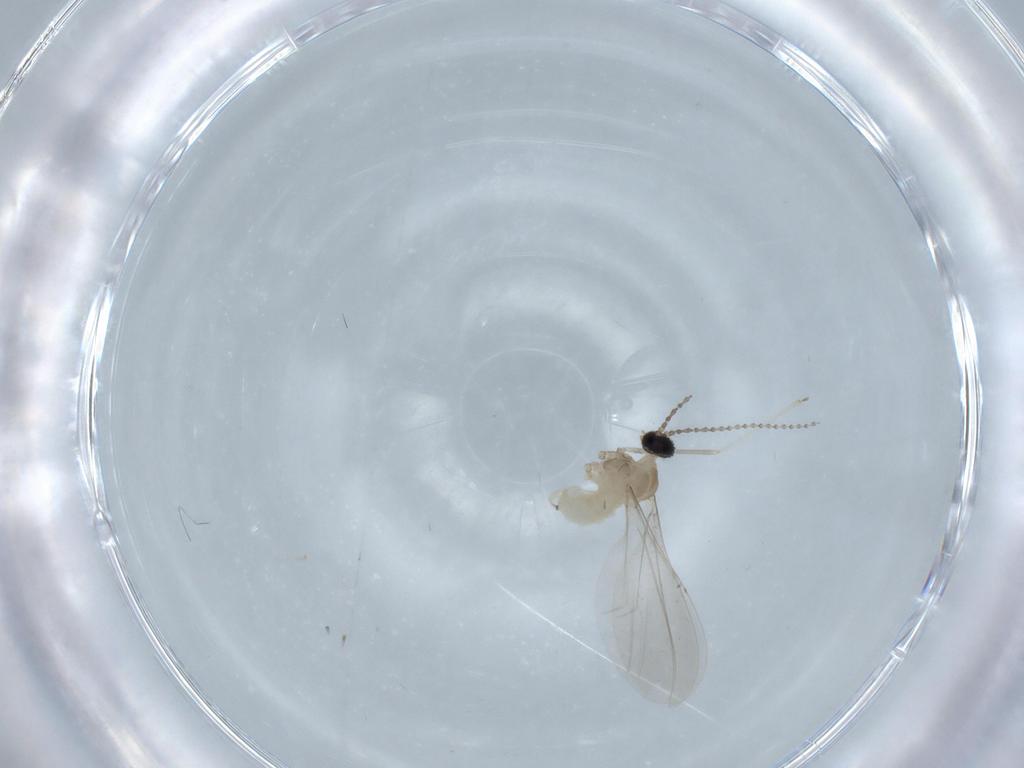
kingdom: Animalia
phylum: Arthropoda
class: Insecta
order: Diptera
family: Cecidomyiidae
